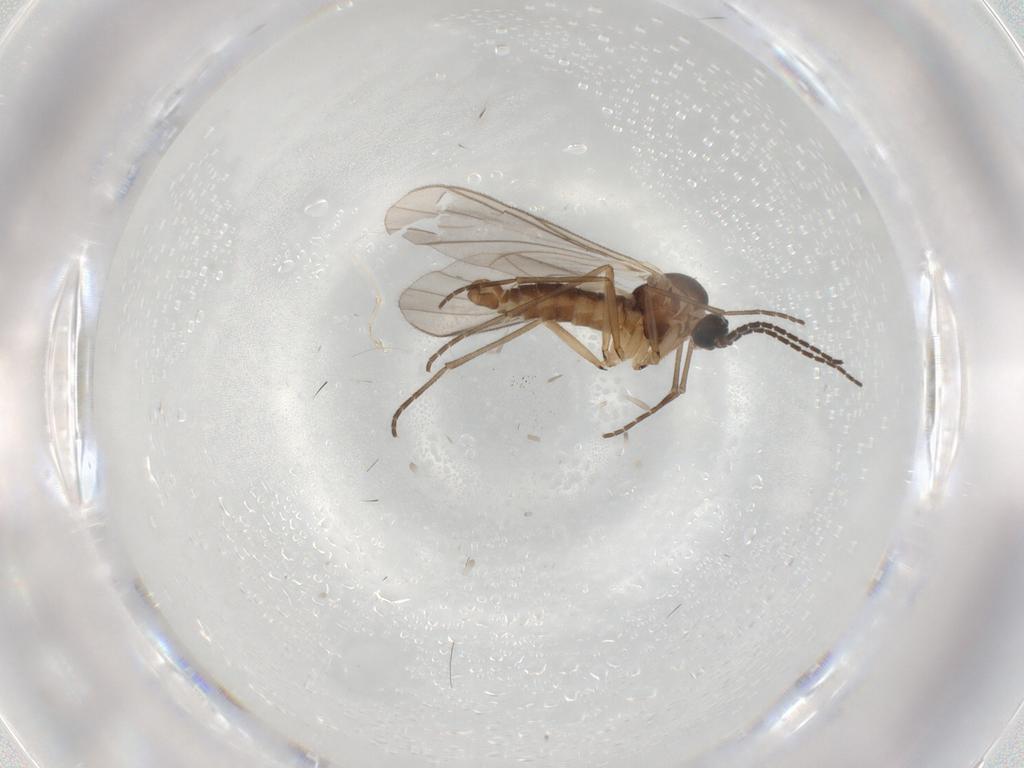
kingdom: Animalia
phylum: Arthropoda
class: Insecta
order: Diptera
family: Sciaridae
